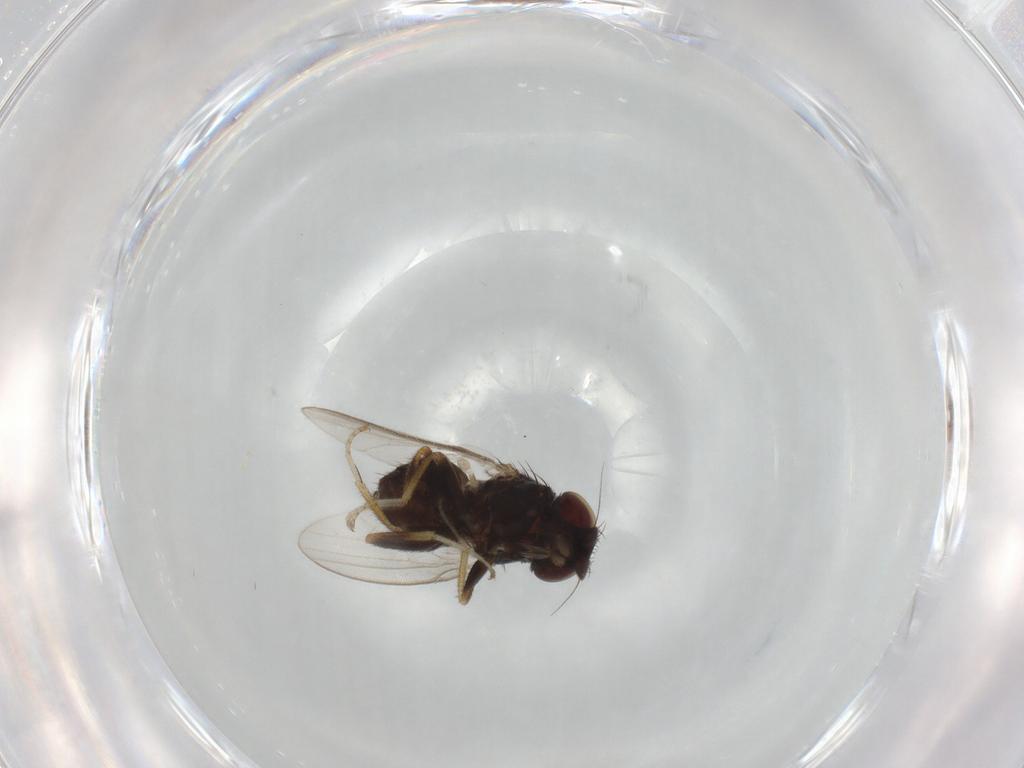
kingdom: Animalia
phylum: Arthropoda
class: Insecta
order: Diptera
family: Milichiidae
